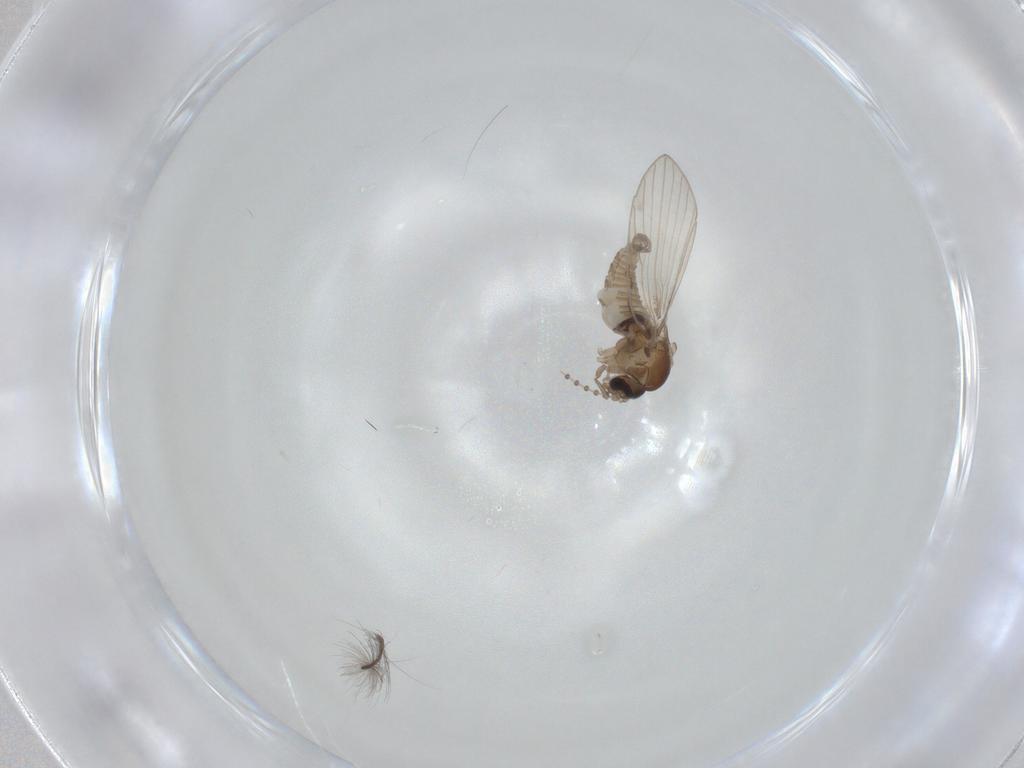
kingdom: Animalia
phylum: Arthropoda
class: Insecta
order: Diptera
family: Psychodidae
